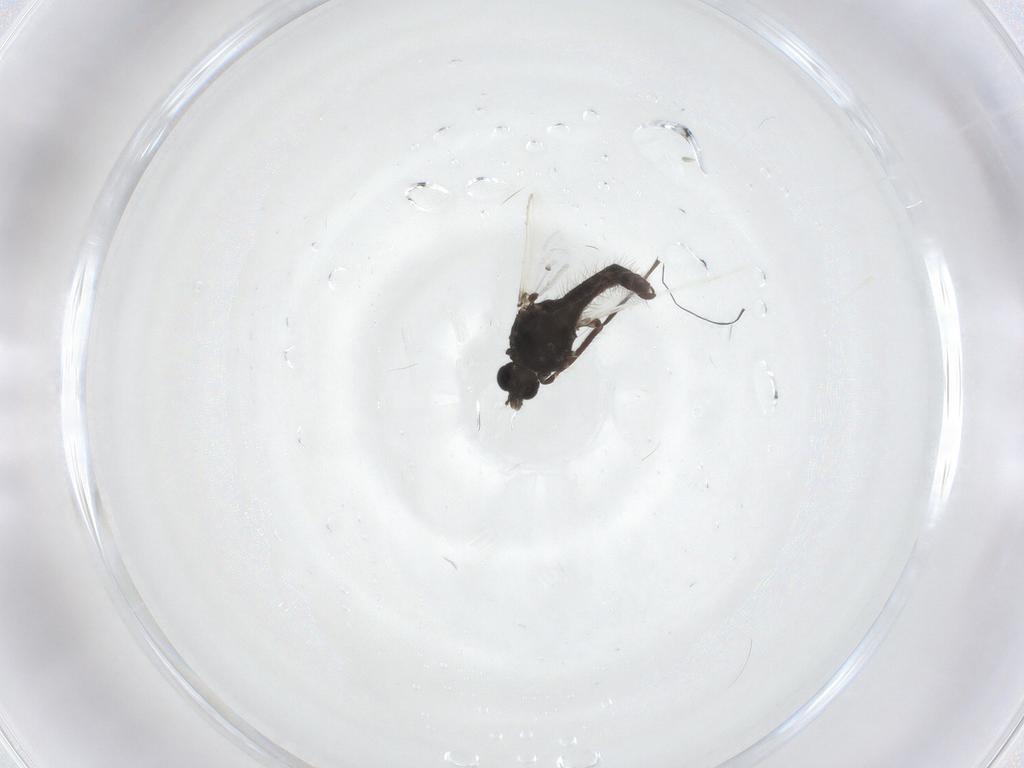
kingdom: Animalia
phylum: Arthropoda
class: Insecta
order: Diptera
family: Chironomidae
